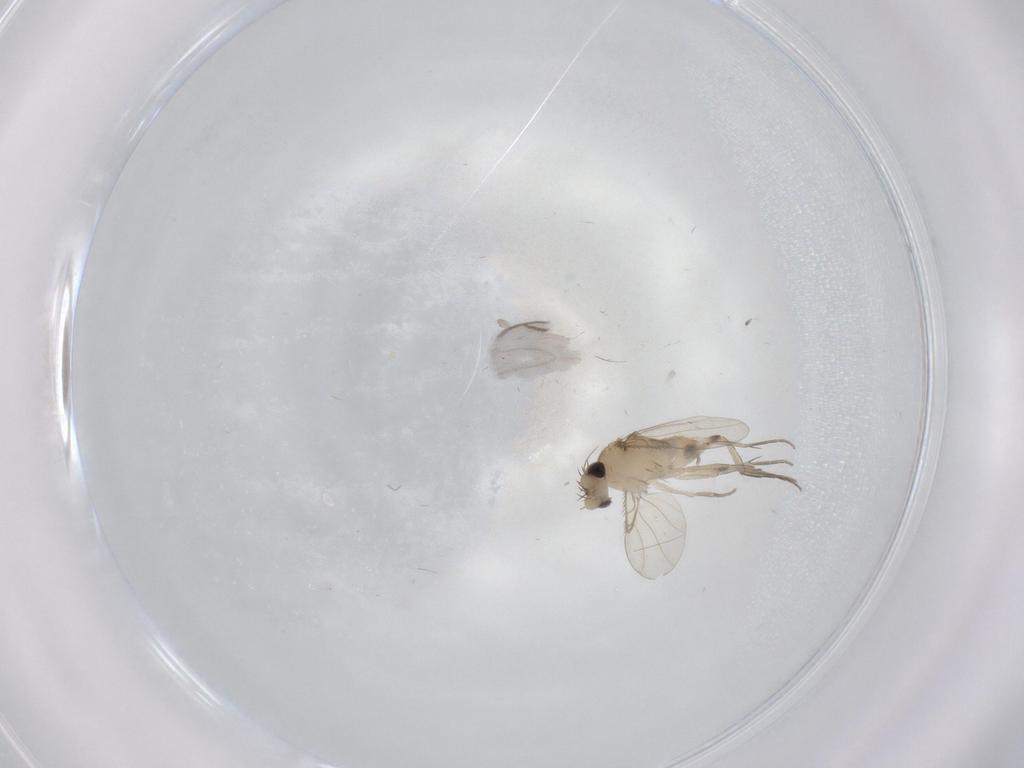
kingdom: Animalia
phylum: Arthropoda
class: Insecta
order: Diptera
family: Phoridae
